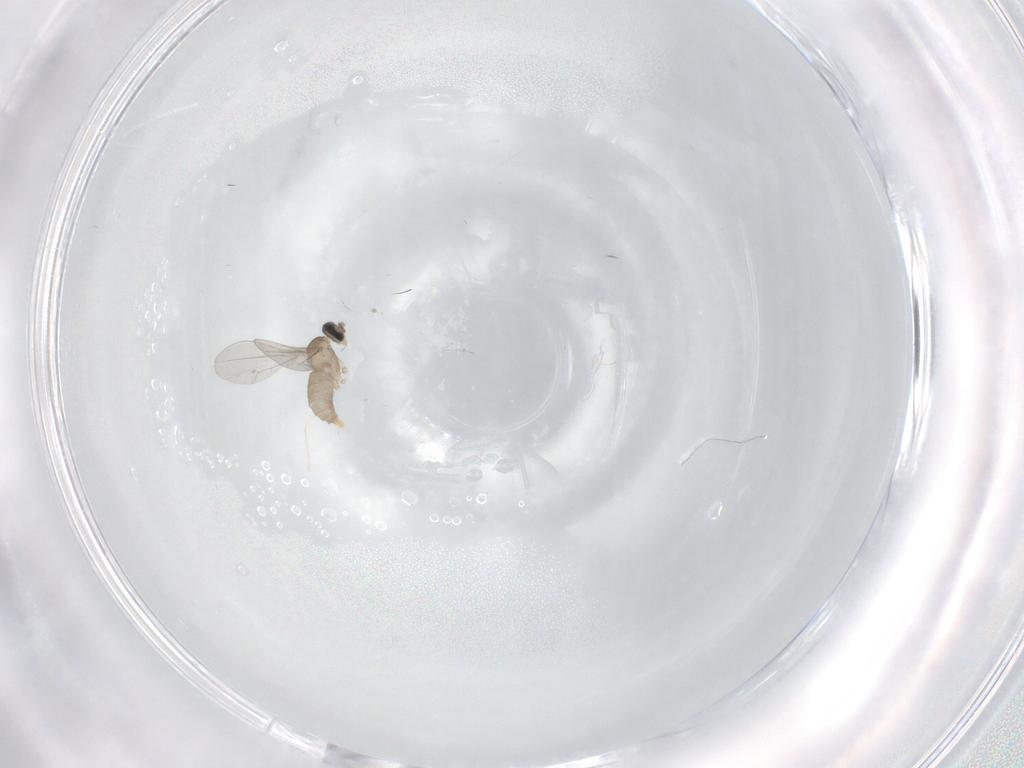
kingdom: Animalia
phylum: Arthropoda
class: Insecta
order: Diptera
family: Cecidomyiidae
